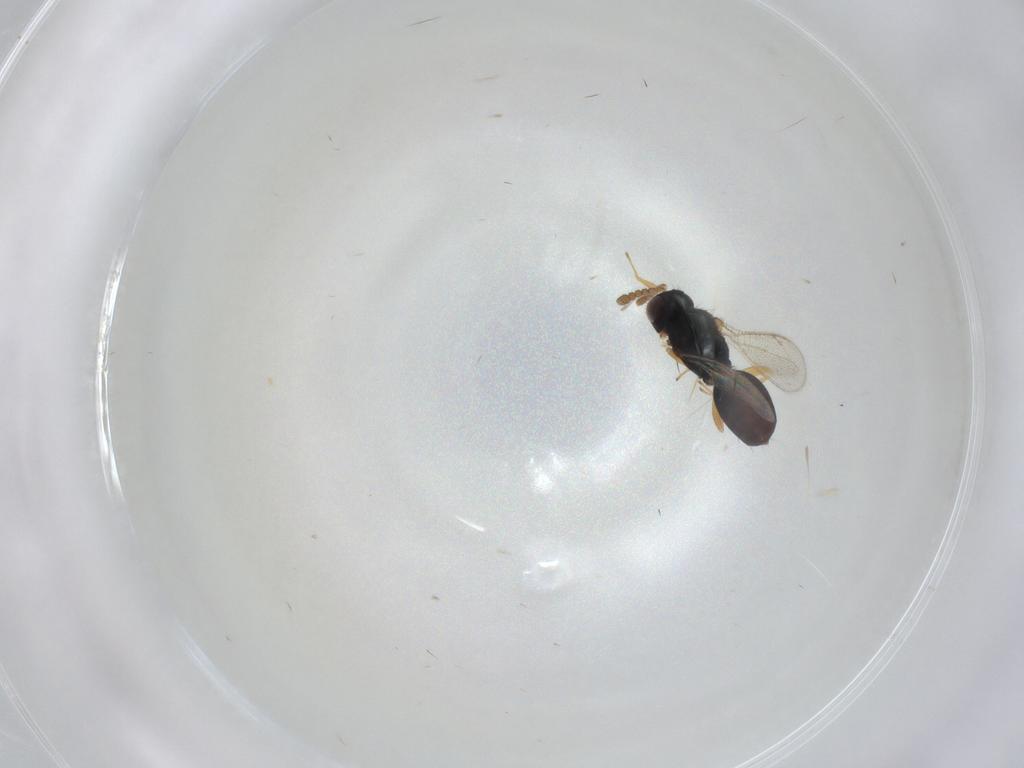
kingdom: Animalia
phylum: Arthropoda
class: Insecta
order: Hymenoptera
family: Eulophidae
